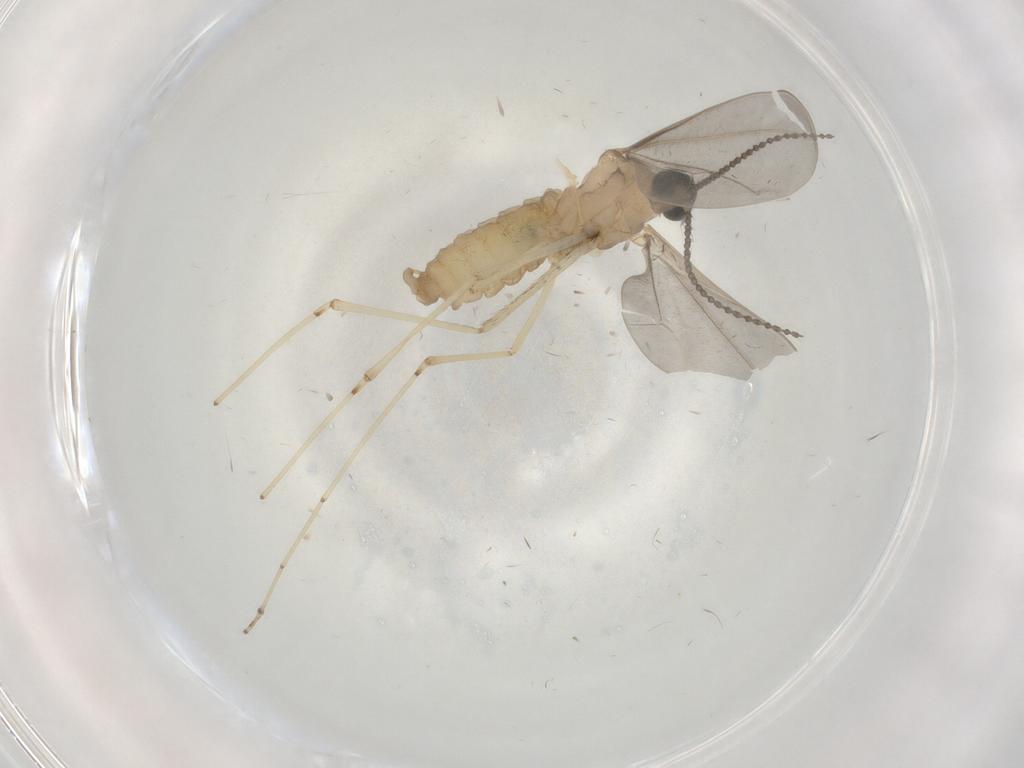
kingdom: Animalia
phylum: Arthropoda
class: Insecta
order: Diptera
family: Cecidomyiidae
